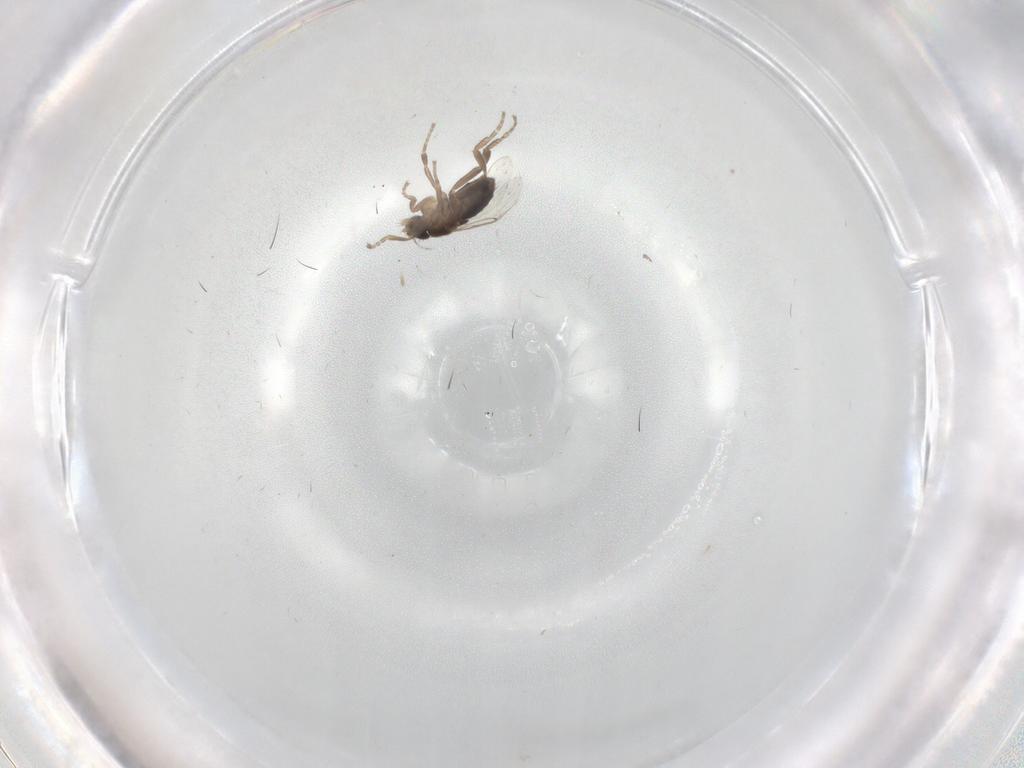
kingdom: Animalia
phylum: Arthropoda
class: Insecta
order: Diptera
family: Phoridae
